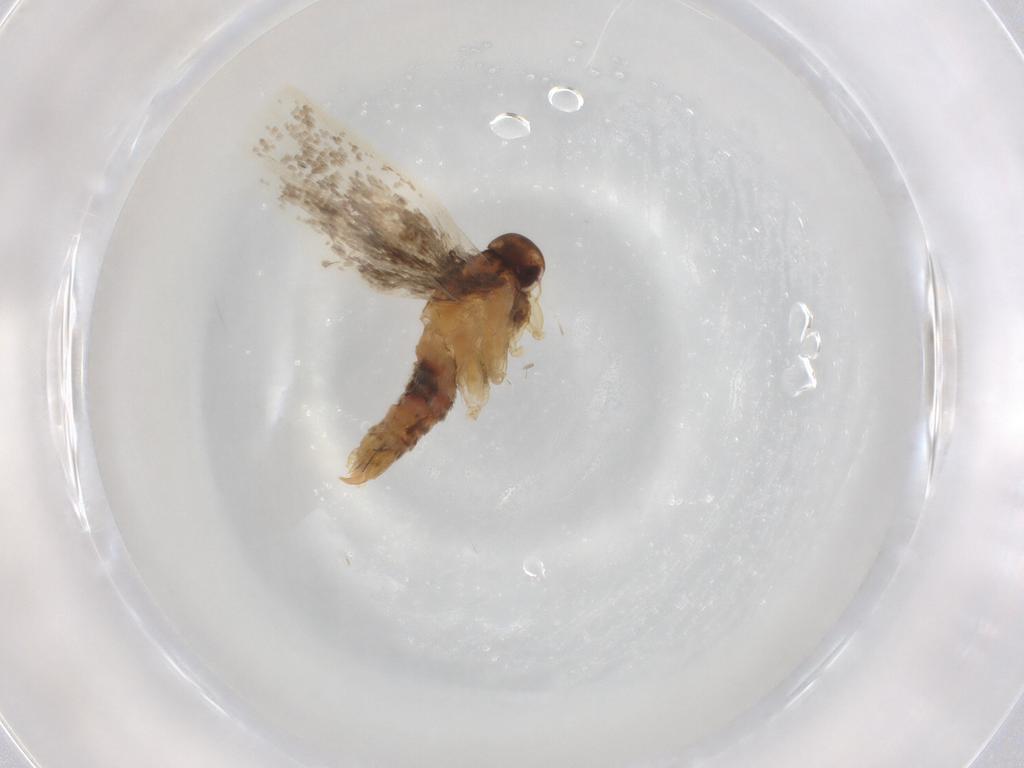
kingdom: Animalia
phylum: Arthropoda
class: Insecta
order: Lepidoptera
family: Oecophoridae
